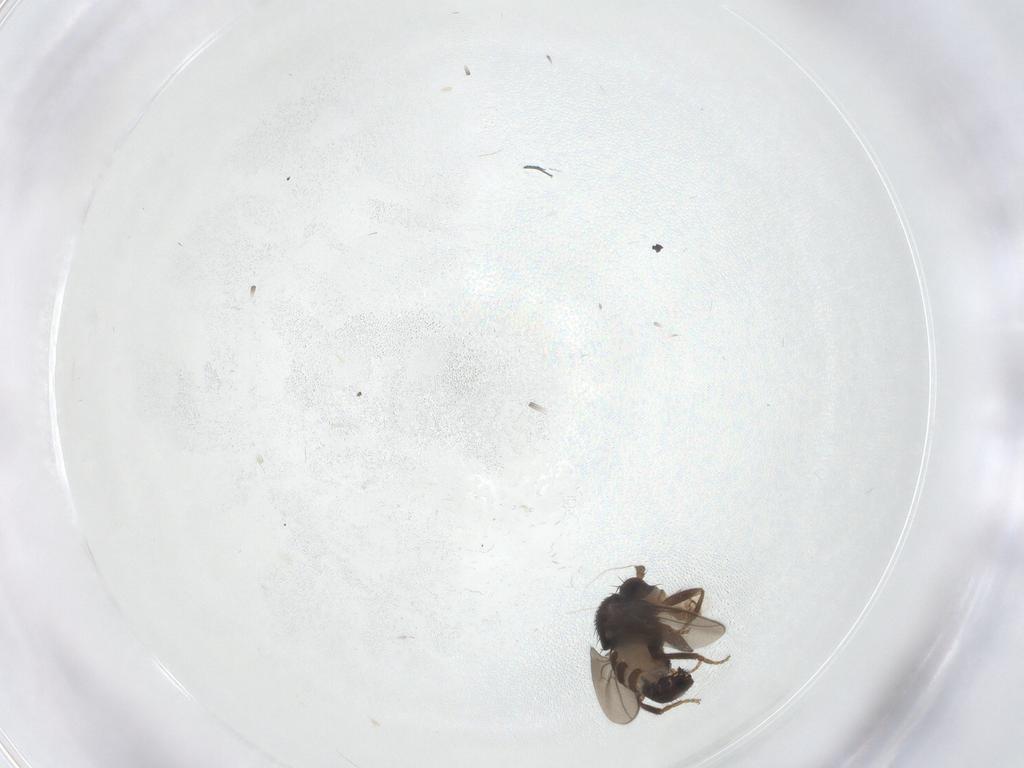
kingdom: Animalia
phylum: Arthropoda
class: Insecta
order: Diptera
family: Sphaeroceridae
